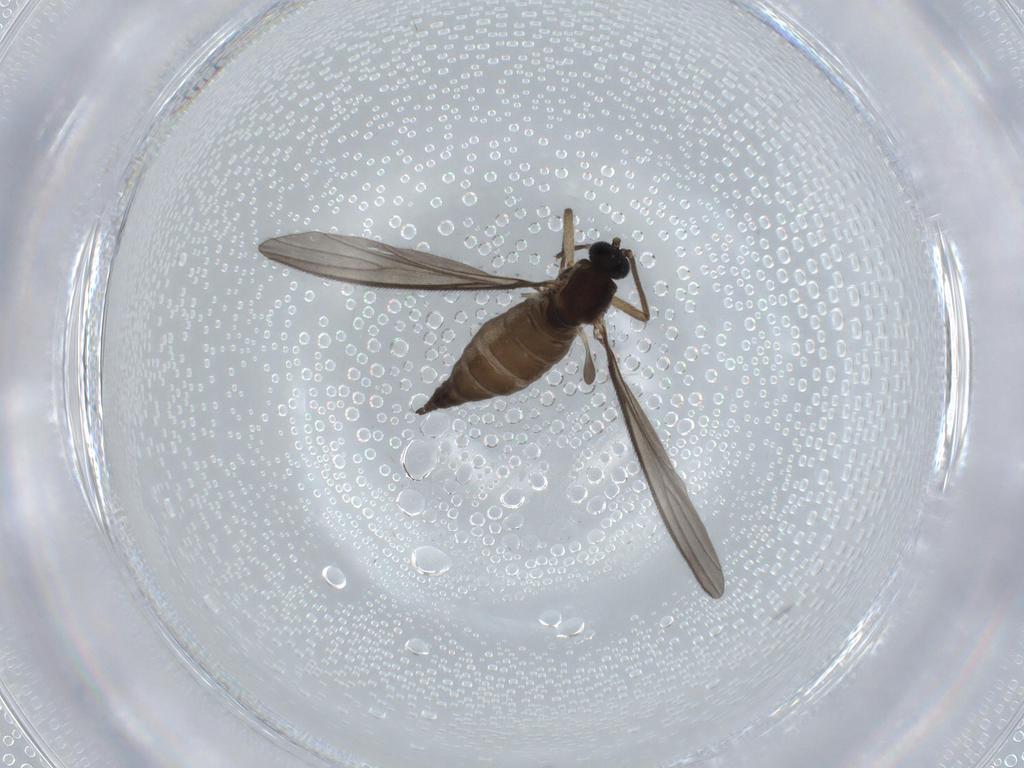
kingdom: Animalia
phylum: Arthropoda
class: Insecta
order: Diptera
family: Sciaridae
